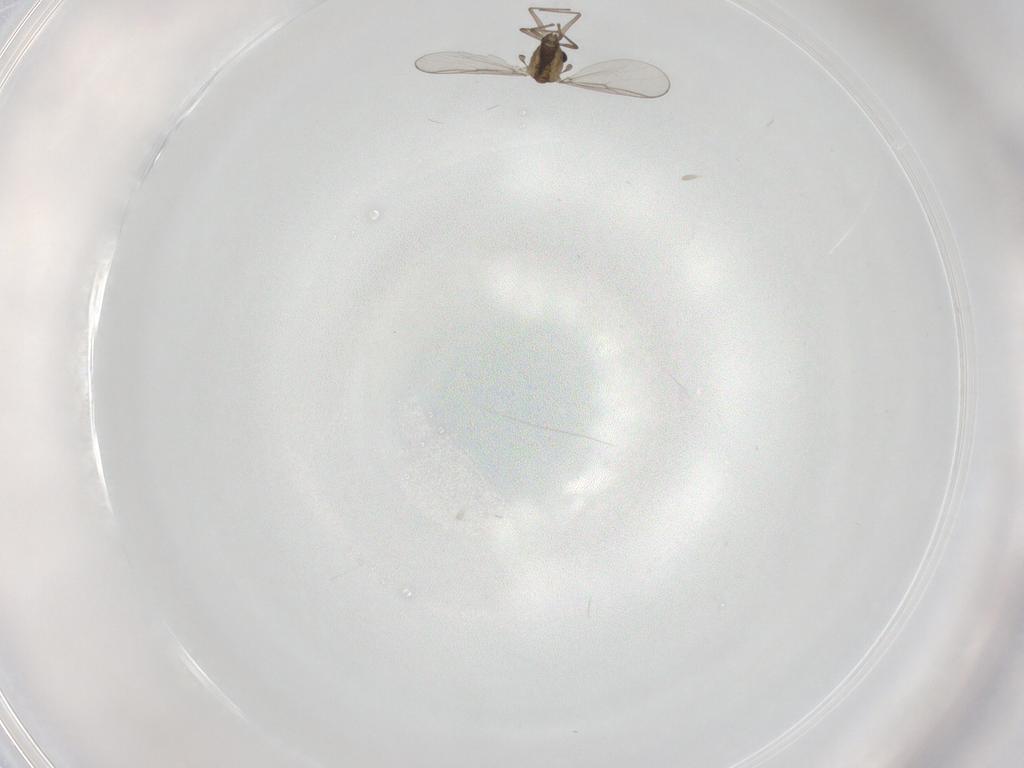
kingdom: Animalia
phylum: Arthropoda
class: Insecta
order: Diptera
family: Chironomidae
